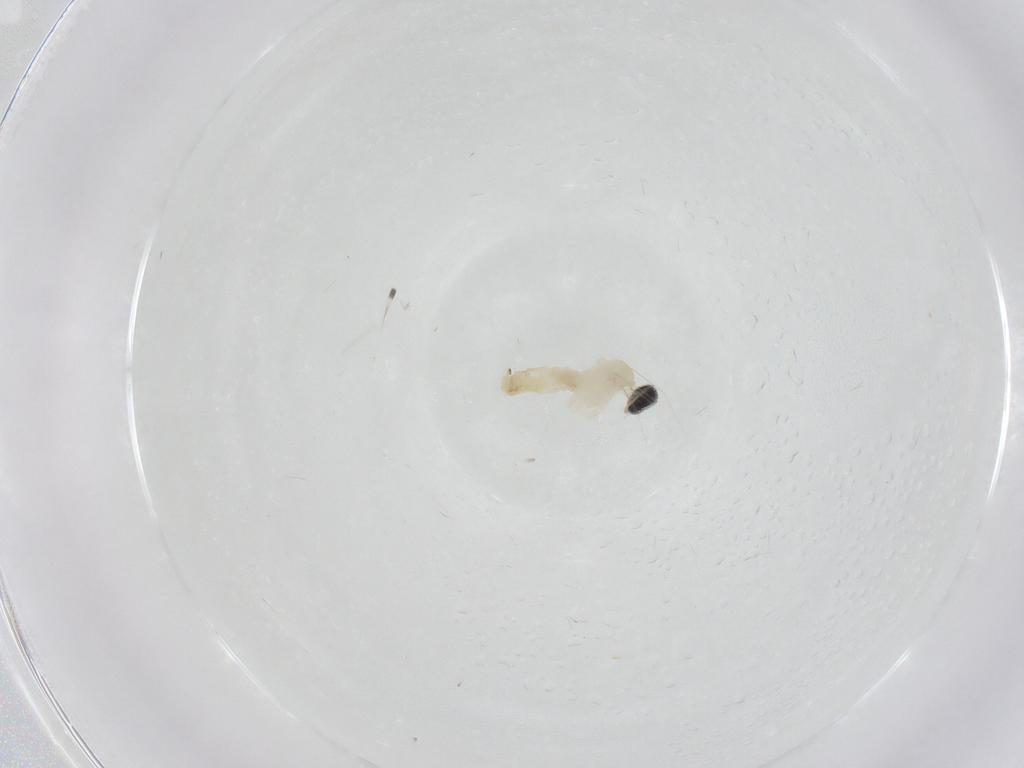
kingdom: Animalia
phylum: Arthropoda
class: Insecta
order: Diptera
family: Cecidomyiidae
